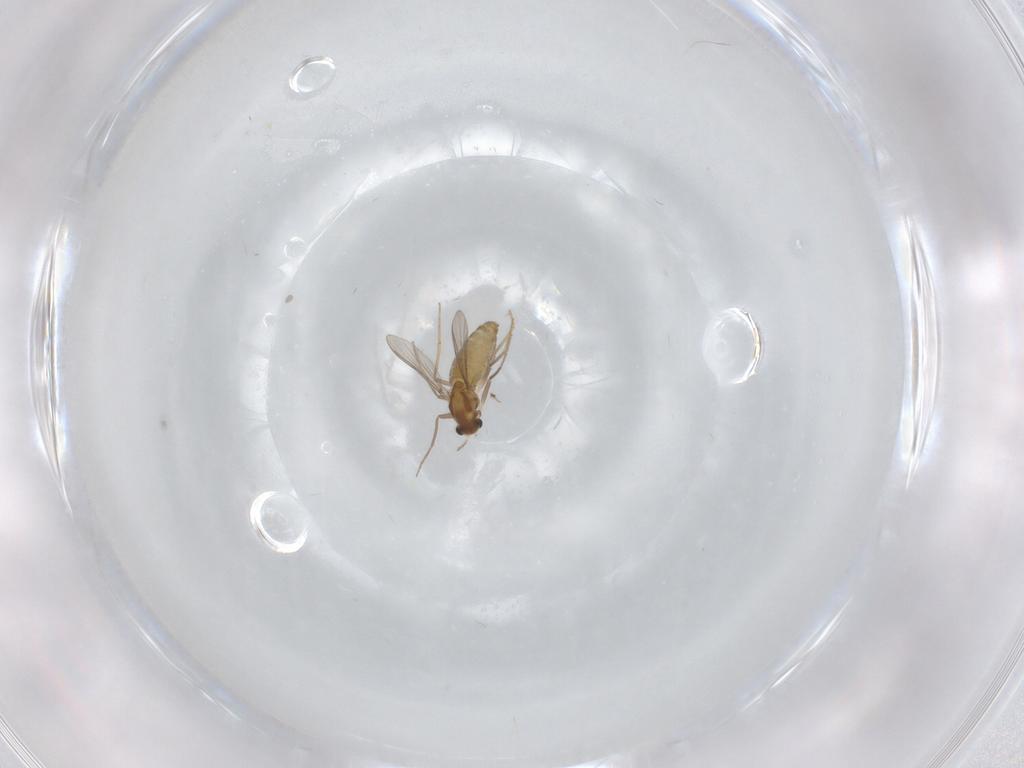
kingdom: Animalia
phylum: Arthropoda
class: Insecta
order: Diptera
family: Chironomidae
